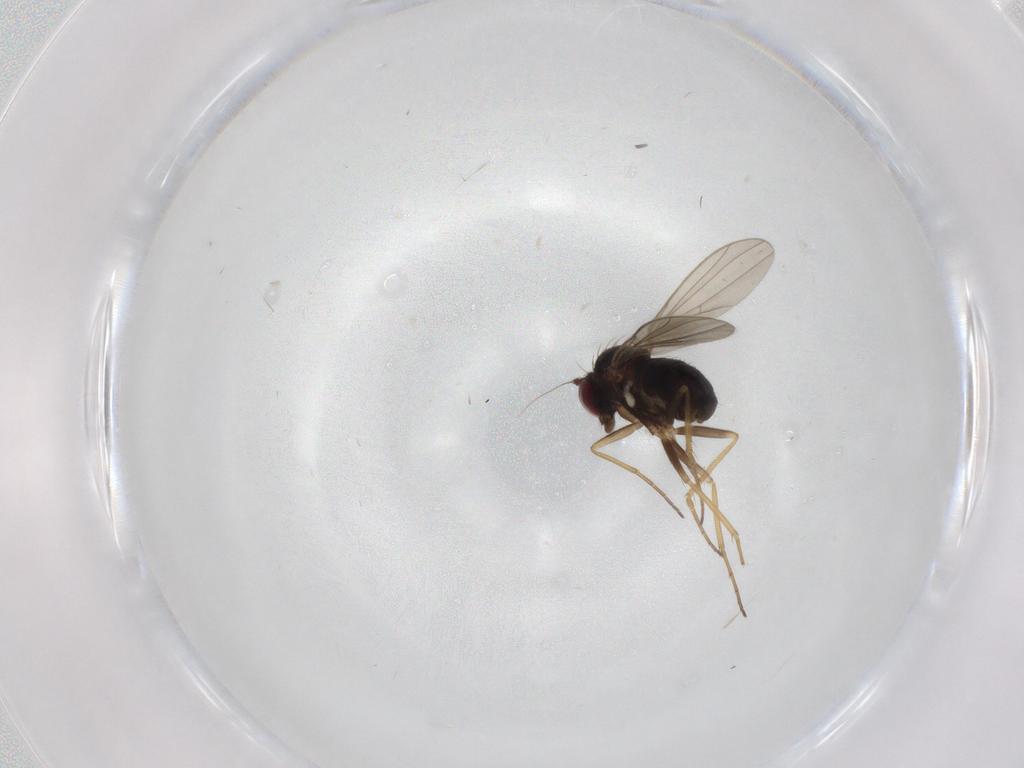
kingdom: Animalia
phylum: Arthropoda
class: Insecta
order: Diptera
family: Dolichopodidae
